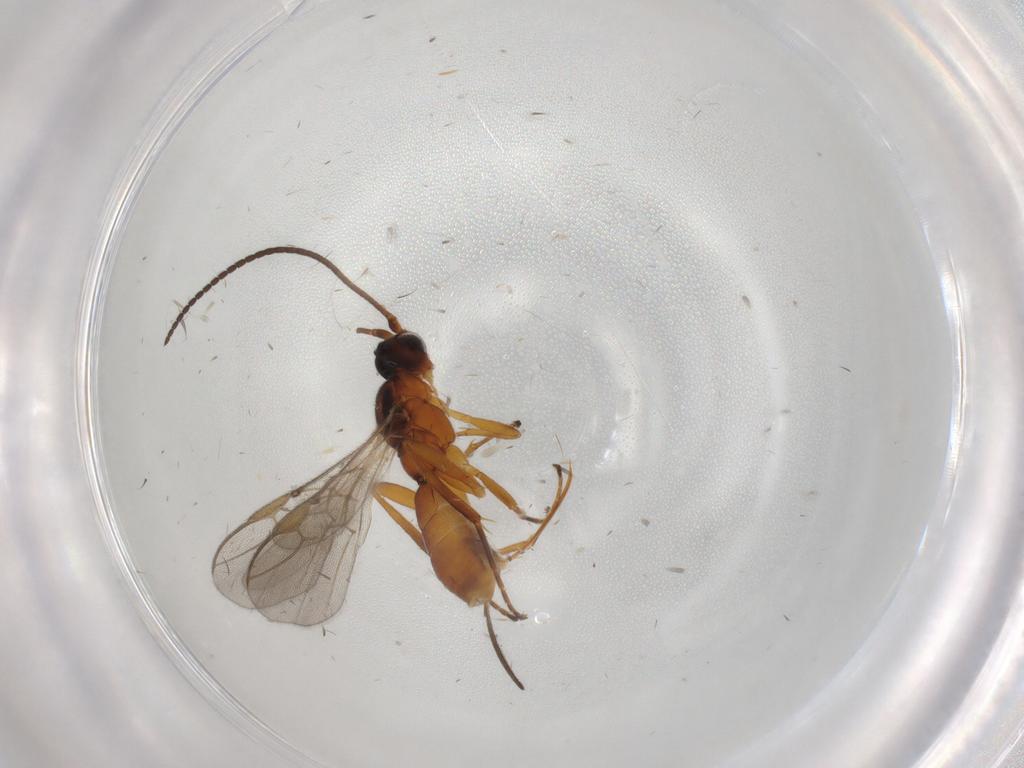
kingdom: Animalia
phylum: Arthropoda
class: Insecta
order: Hymenoptera
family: Braconidae
